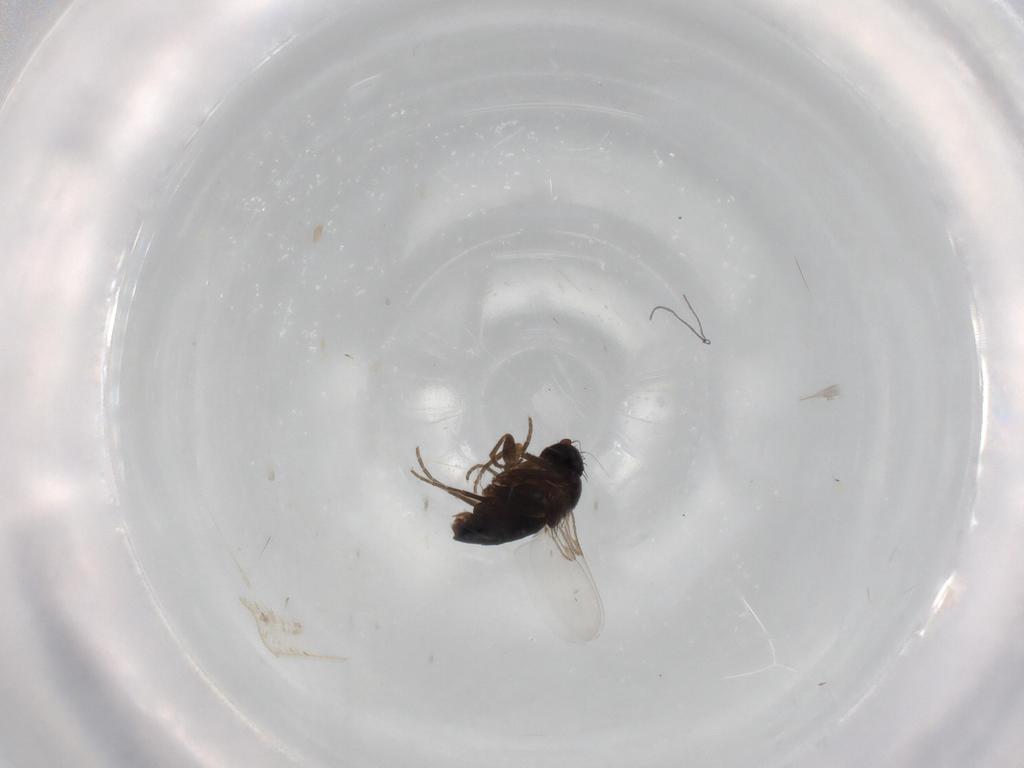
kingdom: Animalia
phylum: Arthropoda
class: Insecta
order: Diptera
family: Phoridae
